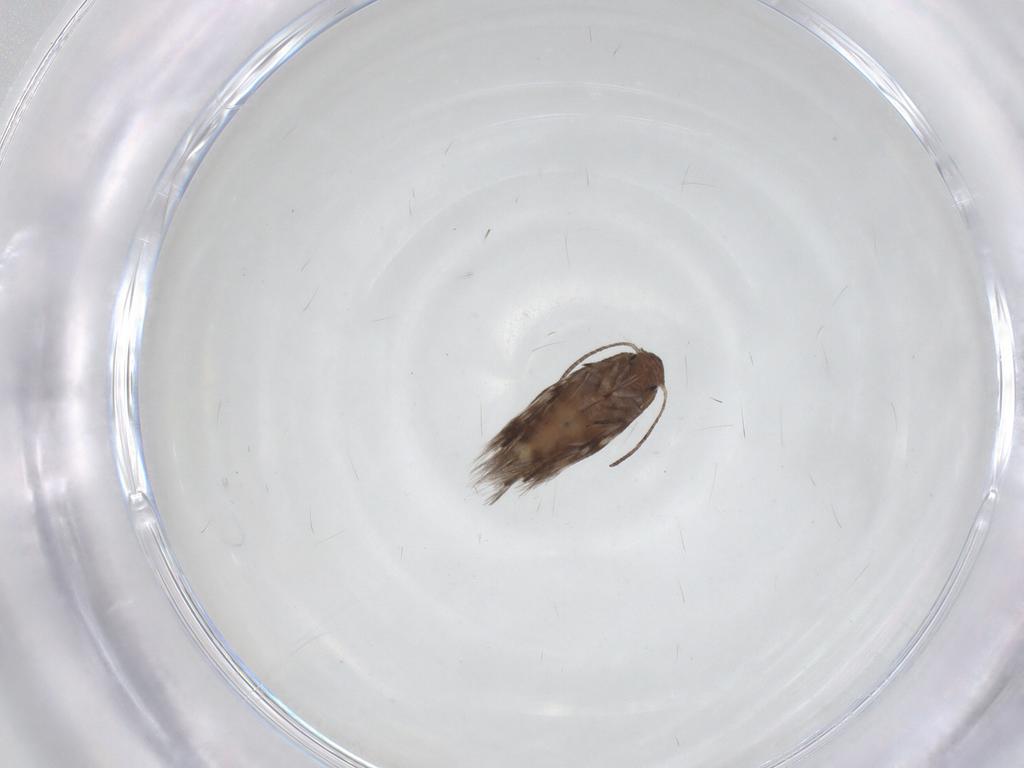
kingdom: Animalia
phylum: Arthropoda
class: Insecta
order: Lepidoptera
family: Lyonetiidae
